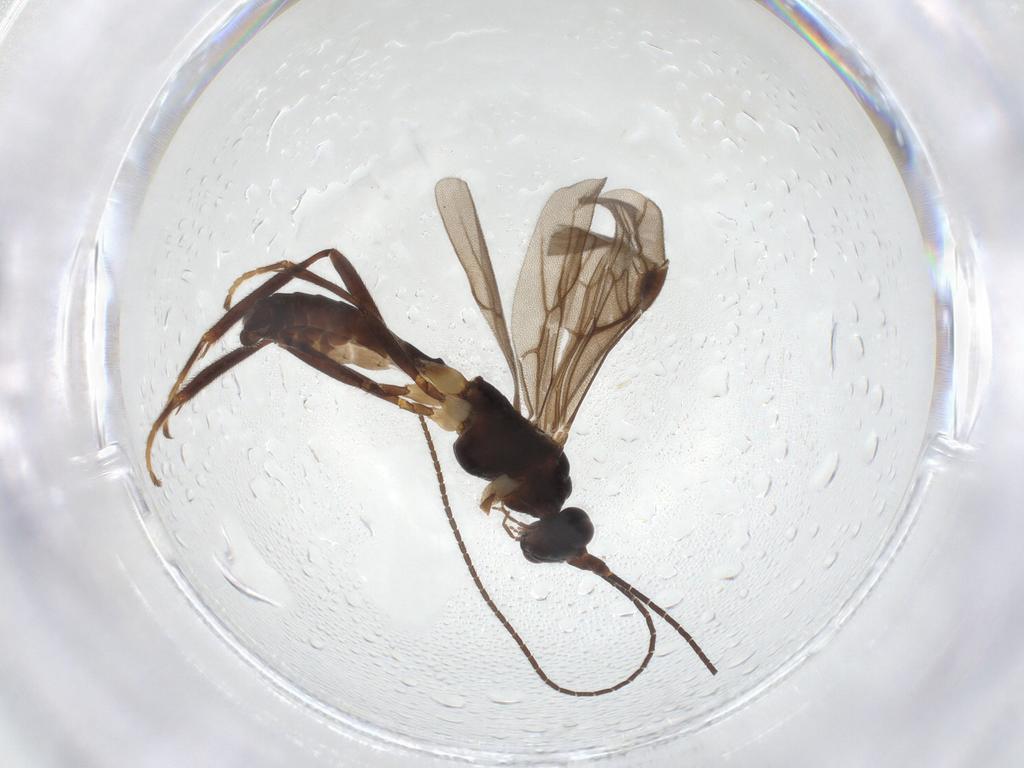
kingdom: Animalia
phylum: Arthropoda
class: Insecta
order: Hymenoptera
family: Braconidae
